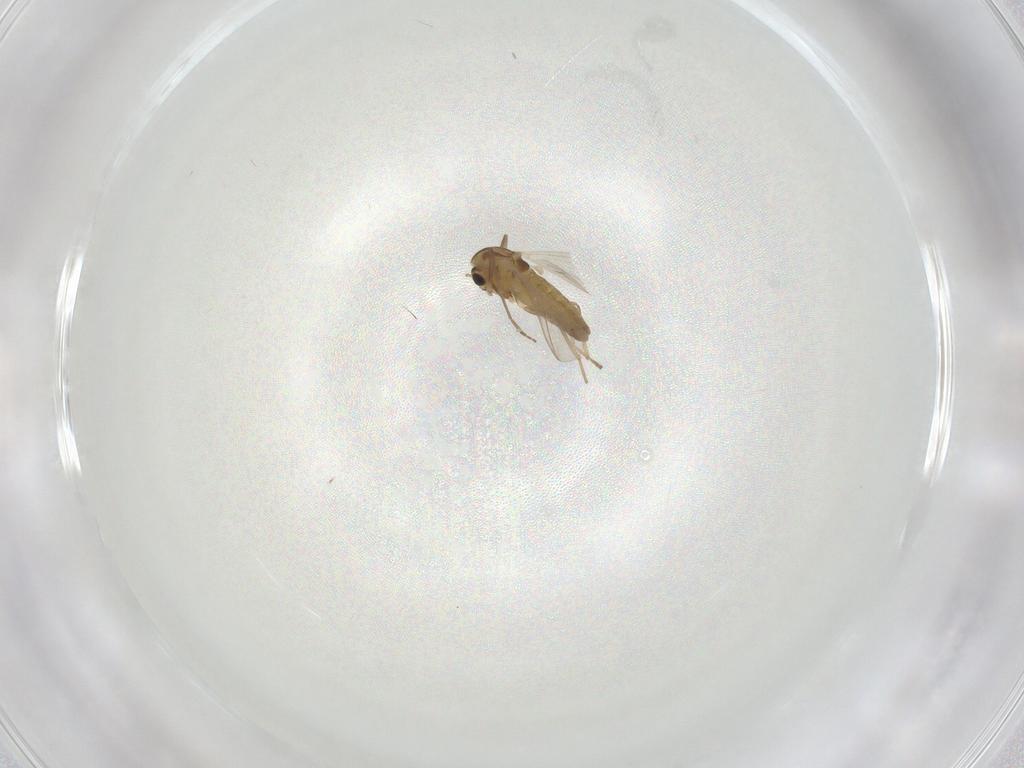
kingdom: Animalia
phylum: Arthropoda
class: Insecta
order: Diptera
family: Chironomidae
